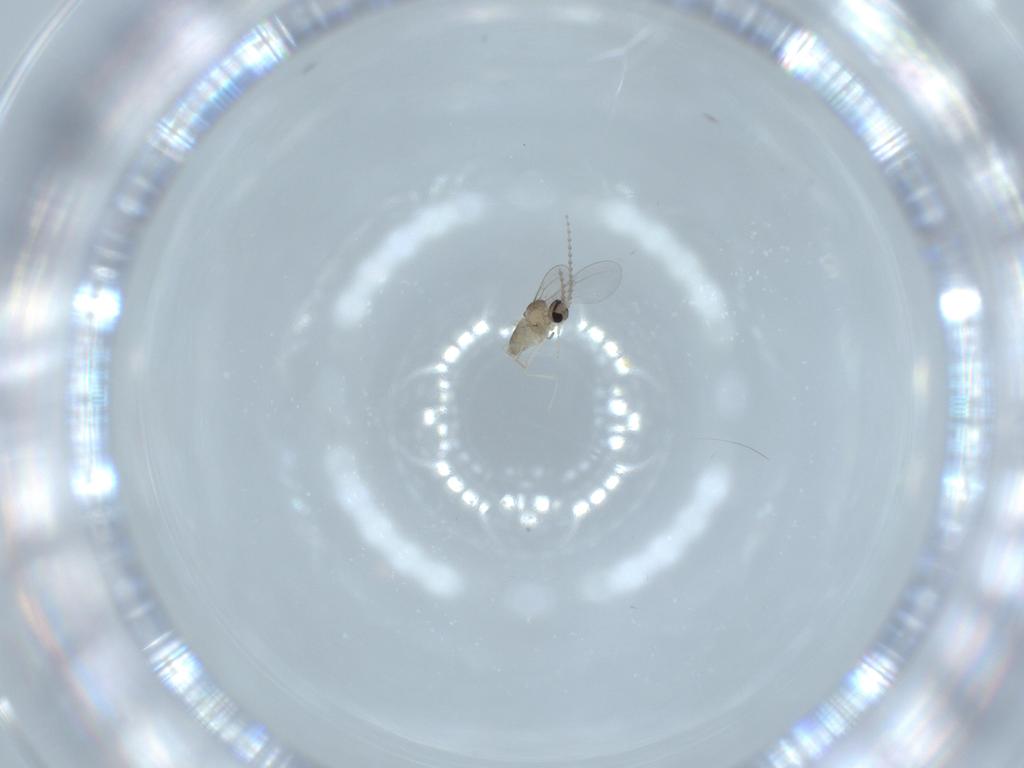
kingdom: Animalia
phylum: Arthropoda
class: Insecta
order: Diptera
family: Cecidomyiidae
